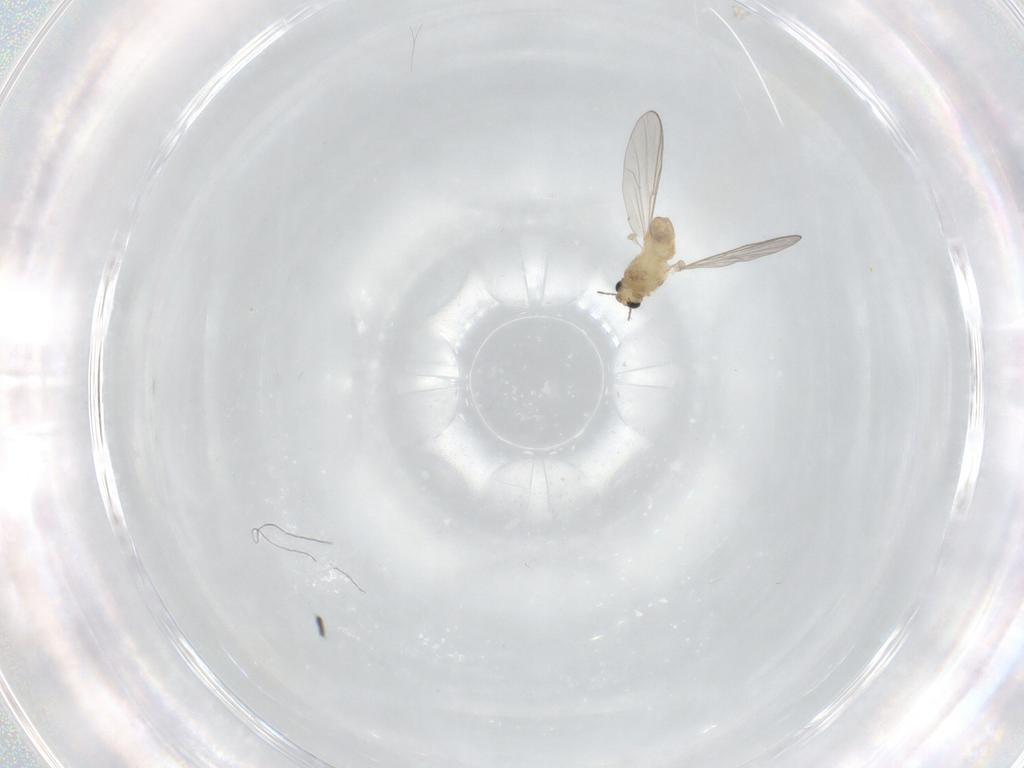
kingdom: Animalia
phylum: Arthropoda
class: Insecta
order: Diptera
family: Chironomidae
